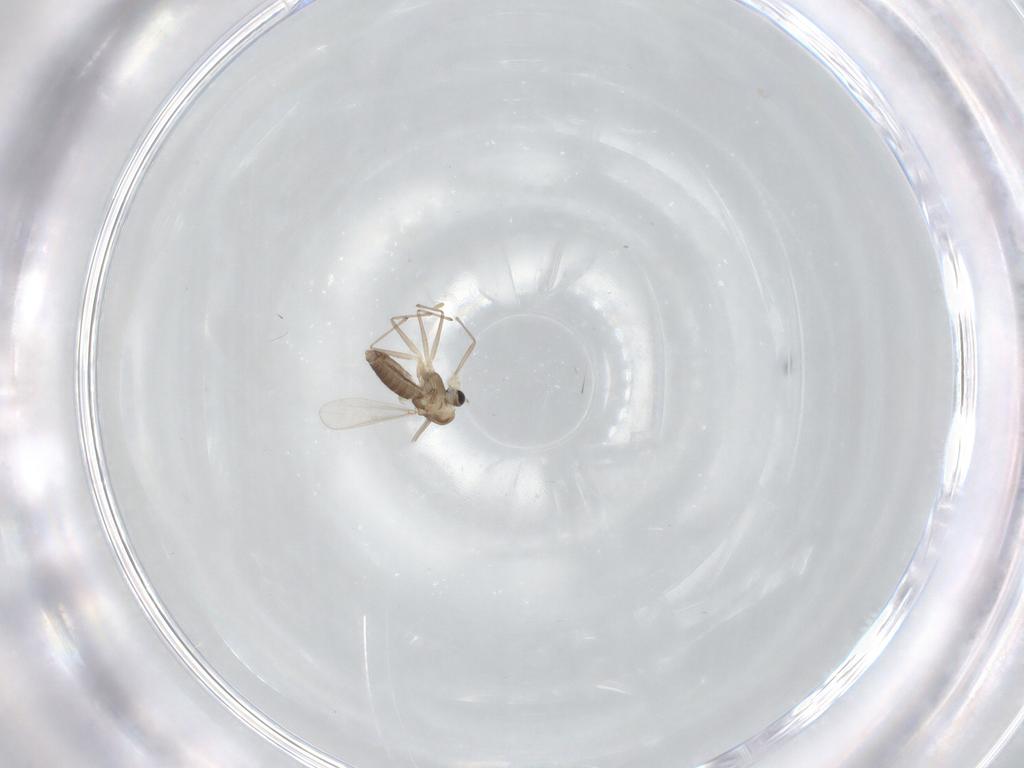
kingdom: Animalia
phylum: Arthropoda
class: Insecta
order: Diptera
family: Chironomidae
